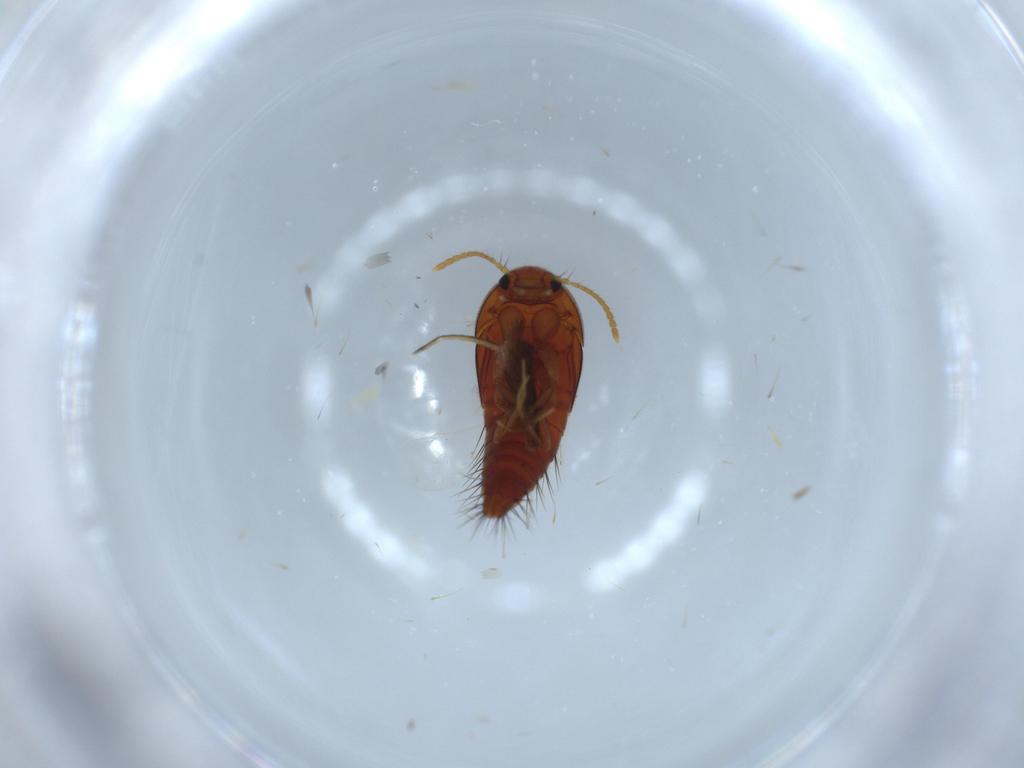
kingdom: Animalia
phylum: Arthropoda
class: Insecta
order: Coleoptera
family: Staphylinidae
